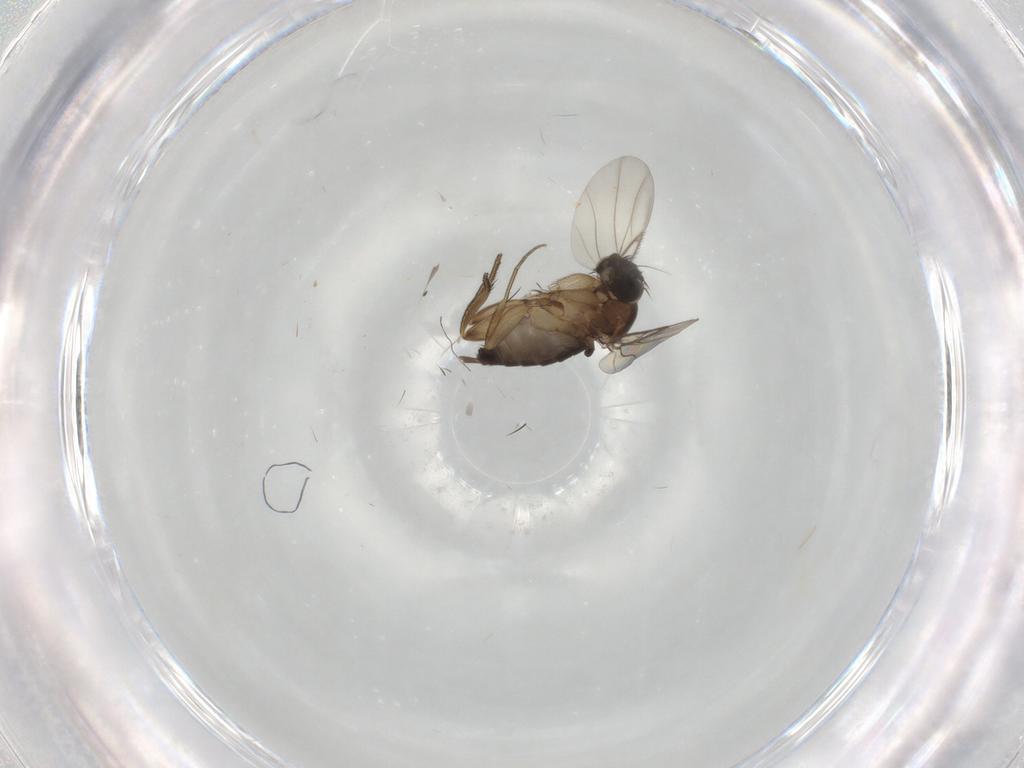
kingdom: Animalia
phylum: Arthropoda
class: Insecta
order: Diptera
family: Phoridae
